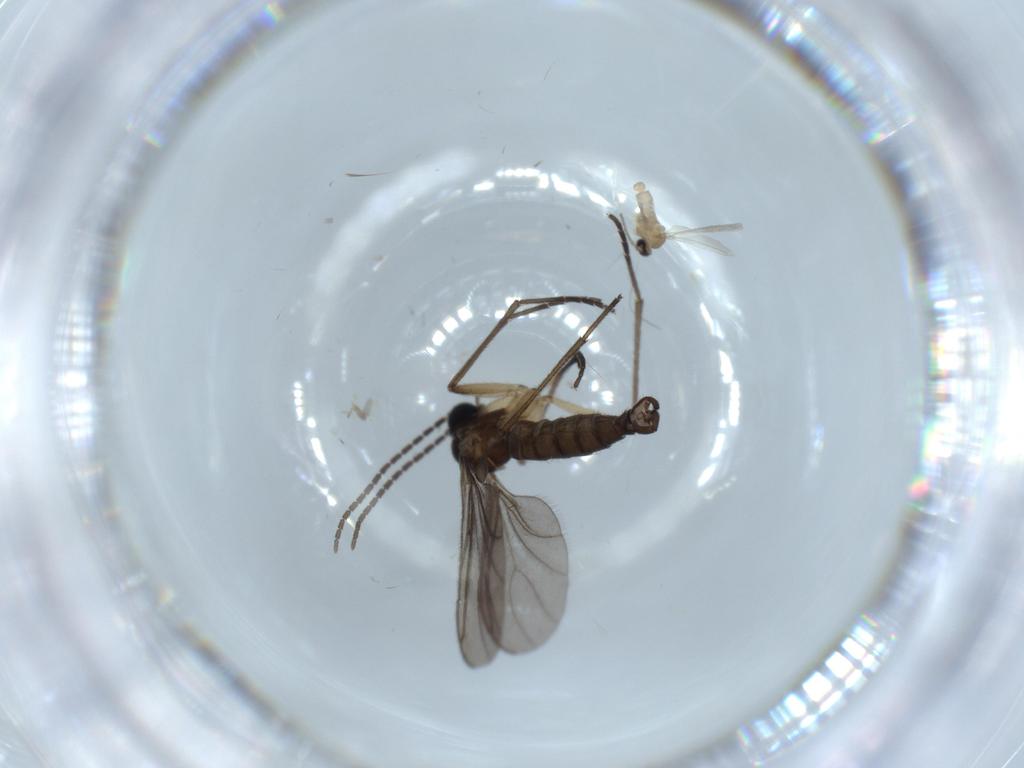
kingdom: Animalia
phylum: Arthropoda
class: Insecta
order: Diptera
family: Cecidomyiidae
